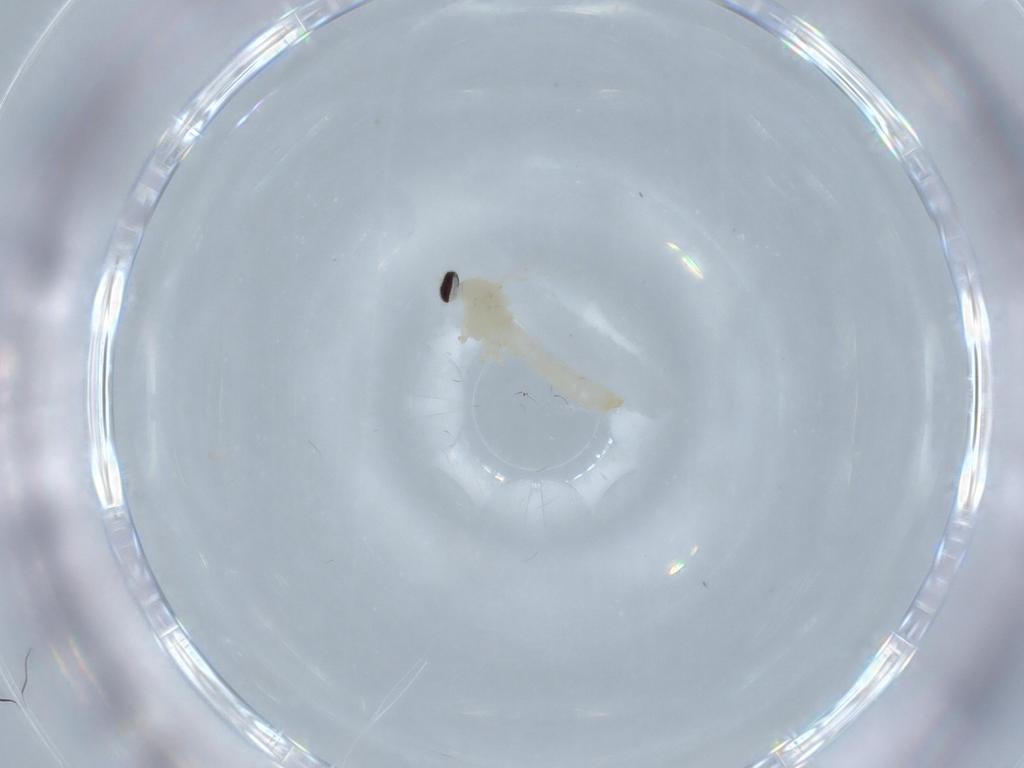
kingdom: Animalia
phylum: Arthropoda
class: Insecta
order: Diptera
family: Cecidomyiidae
